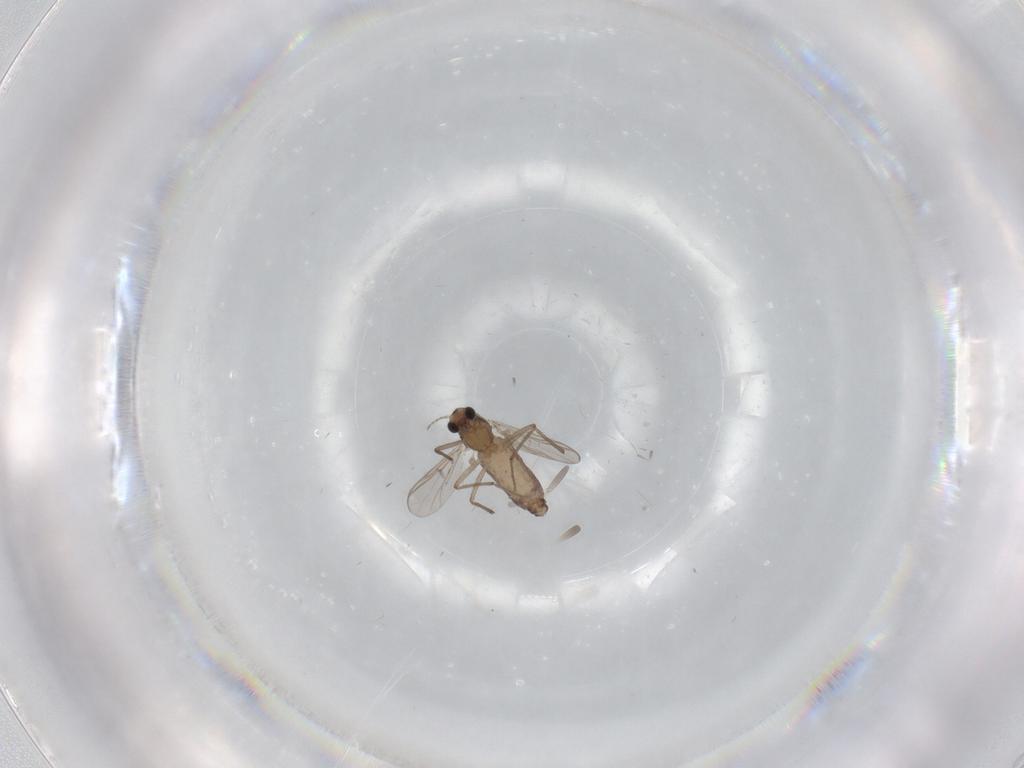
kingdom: Animalia
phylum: Arthropoda
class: Insecta
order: Diptera
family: Chironomidae
